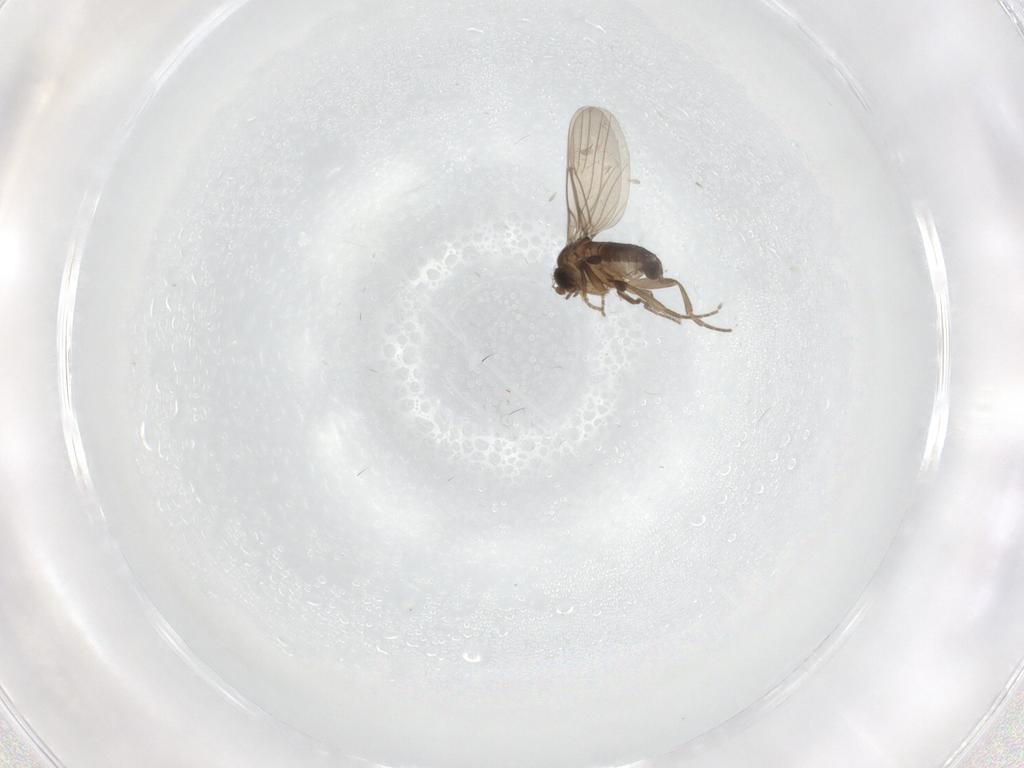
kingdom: Animalia
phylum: Arthropoda
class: Insecta
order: Diptera
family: Phoridae
